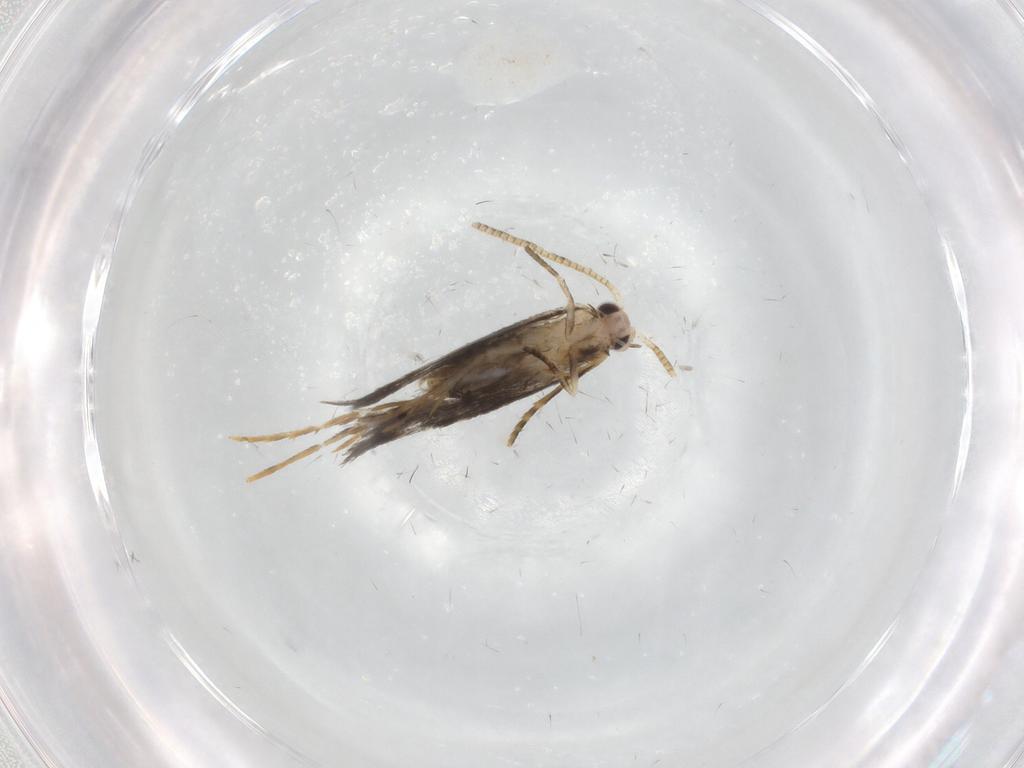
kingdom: Animalia
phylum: Arthropoda
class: Insecta
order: Lepidoptera
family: Tineidae
